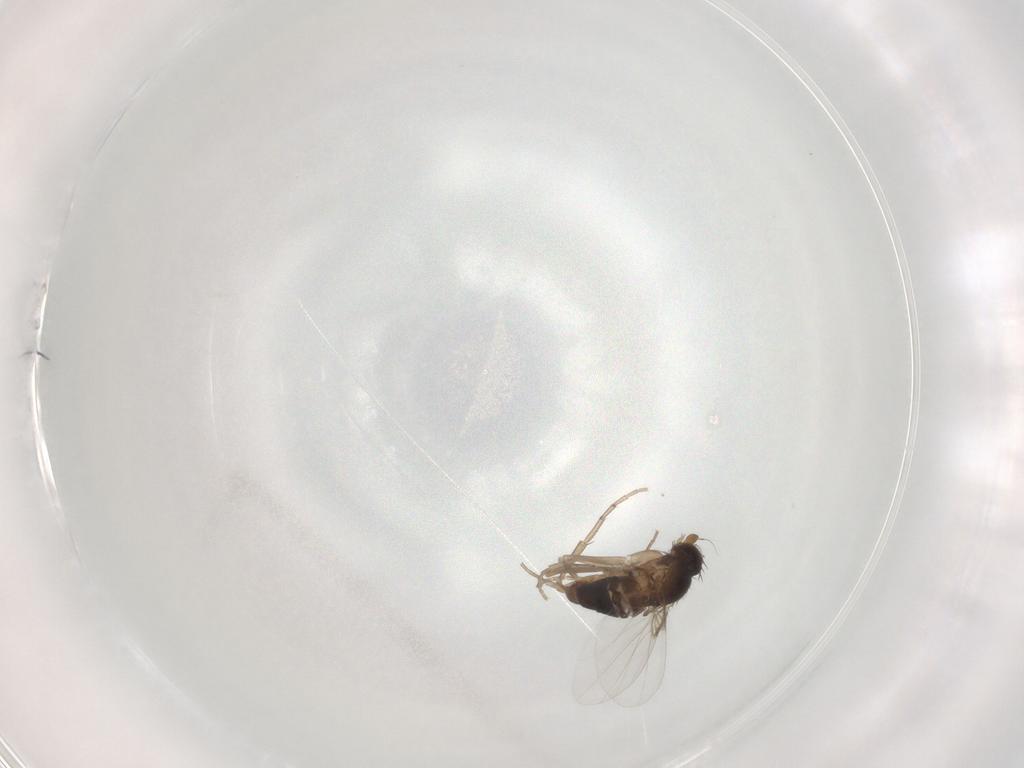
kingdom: Animalia
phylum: Arthropoda
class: Insecta
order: Diptera
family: Phoridae
